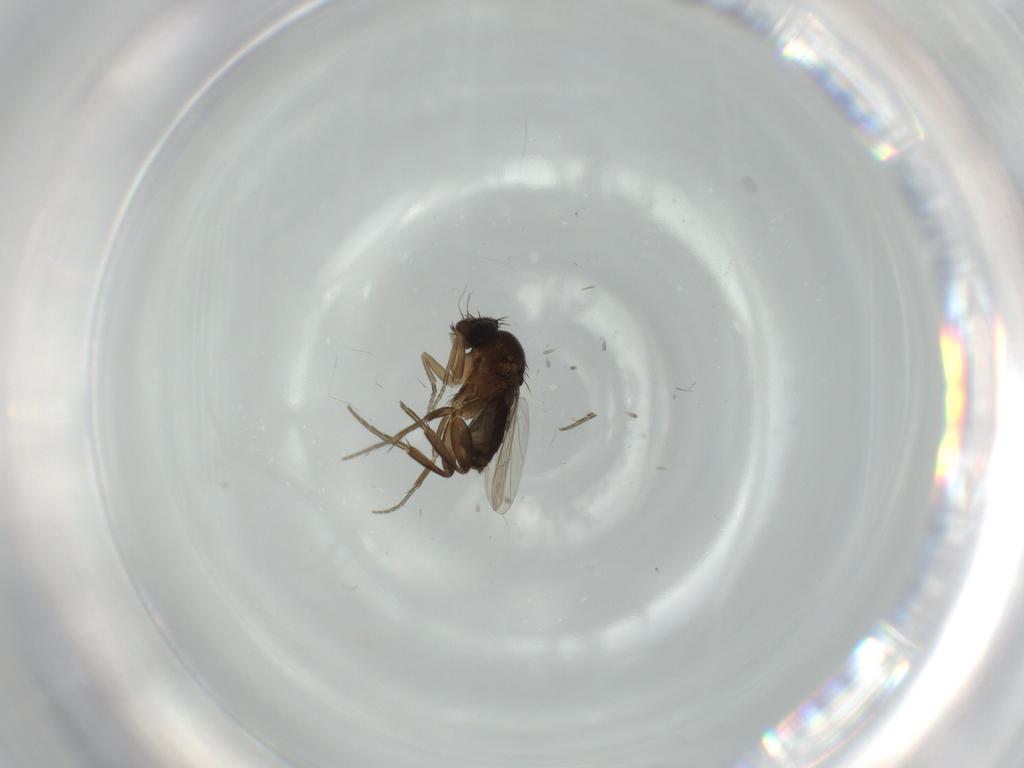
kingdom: Animalia
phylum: Arthropoda
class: Insecta
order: Diptera
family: Phoridae
